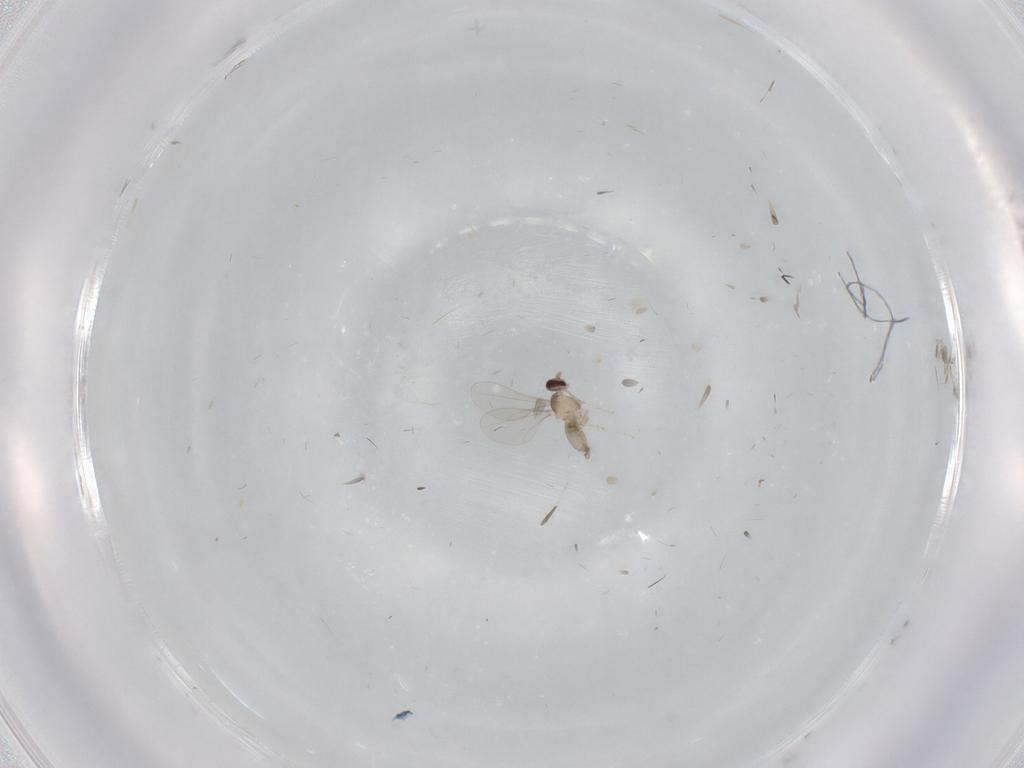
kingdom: Animalia
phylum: Arthropoda
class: Insecta
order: Diptera
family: Cecidomyiidae
